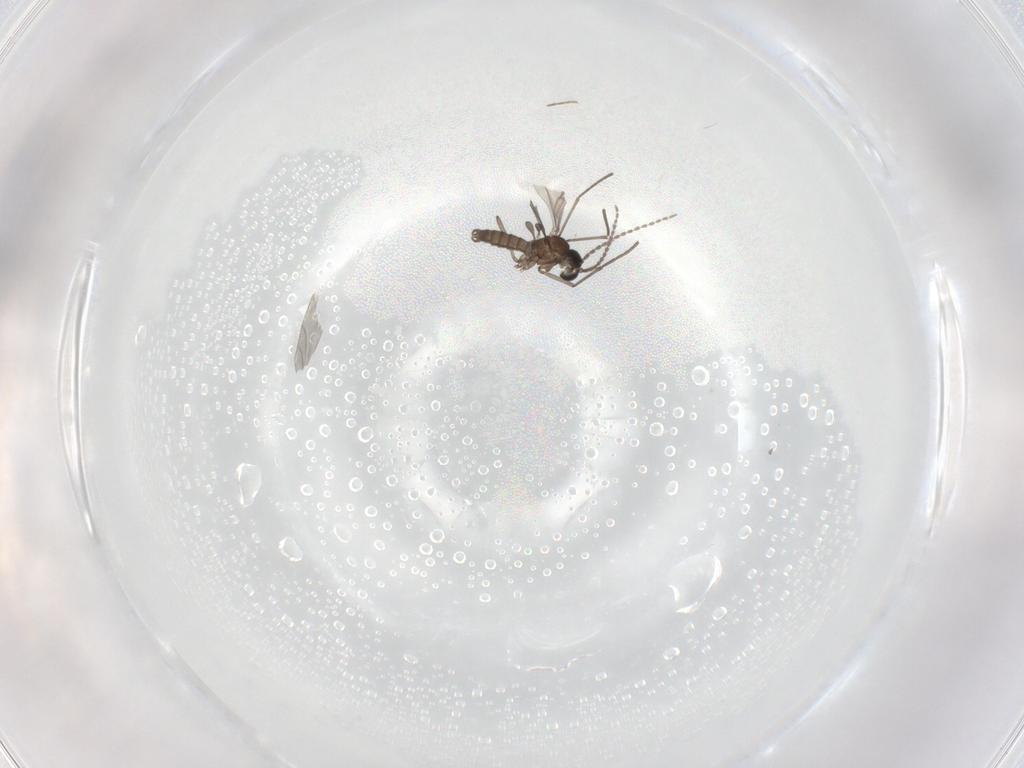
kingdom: Animalia
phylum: Arthropoda
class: Insecta
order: Diptera
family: Sciaridae
